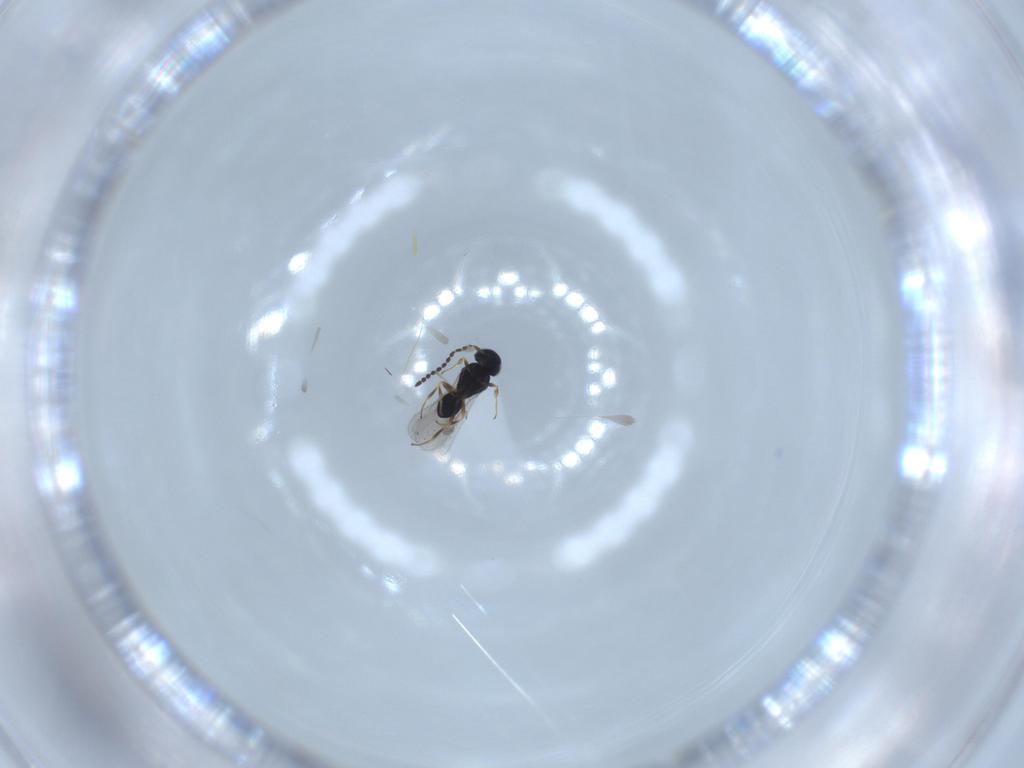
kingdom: Animalia
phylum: Arthropoda
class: Insecta
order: Hymenoptera
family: Scelionidae
